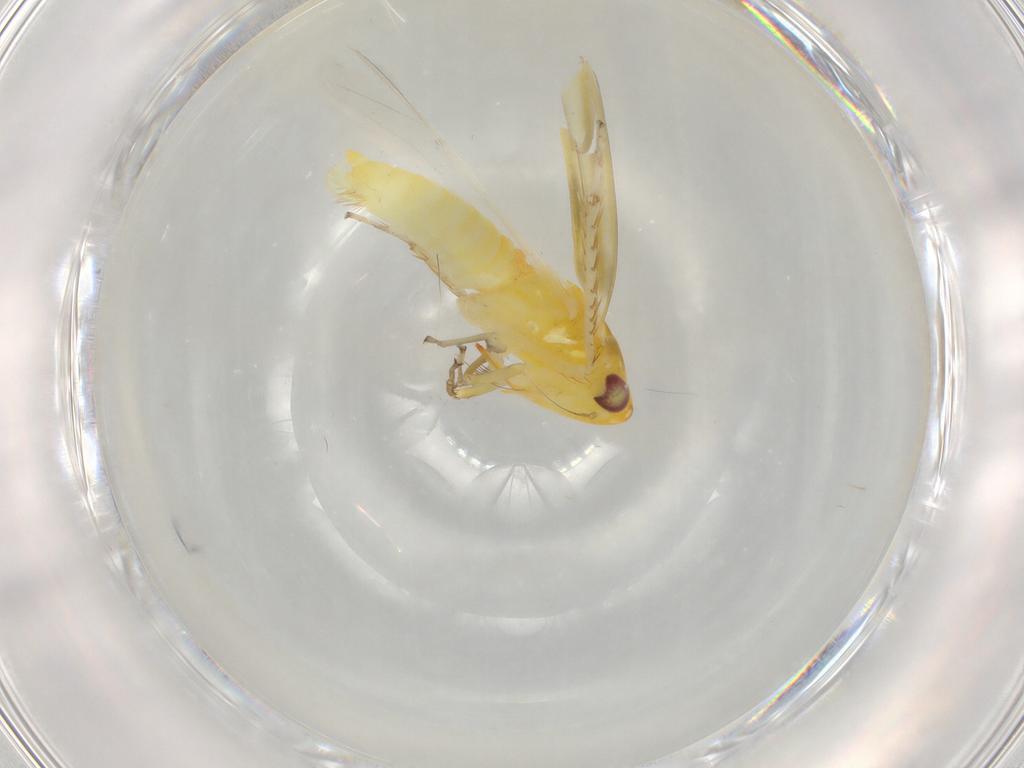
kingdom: Animalia
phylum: Arthropoda
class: Insecta
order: Hemiptera
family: Cicadellidae
